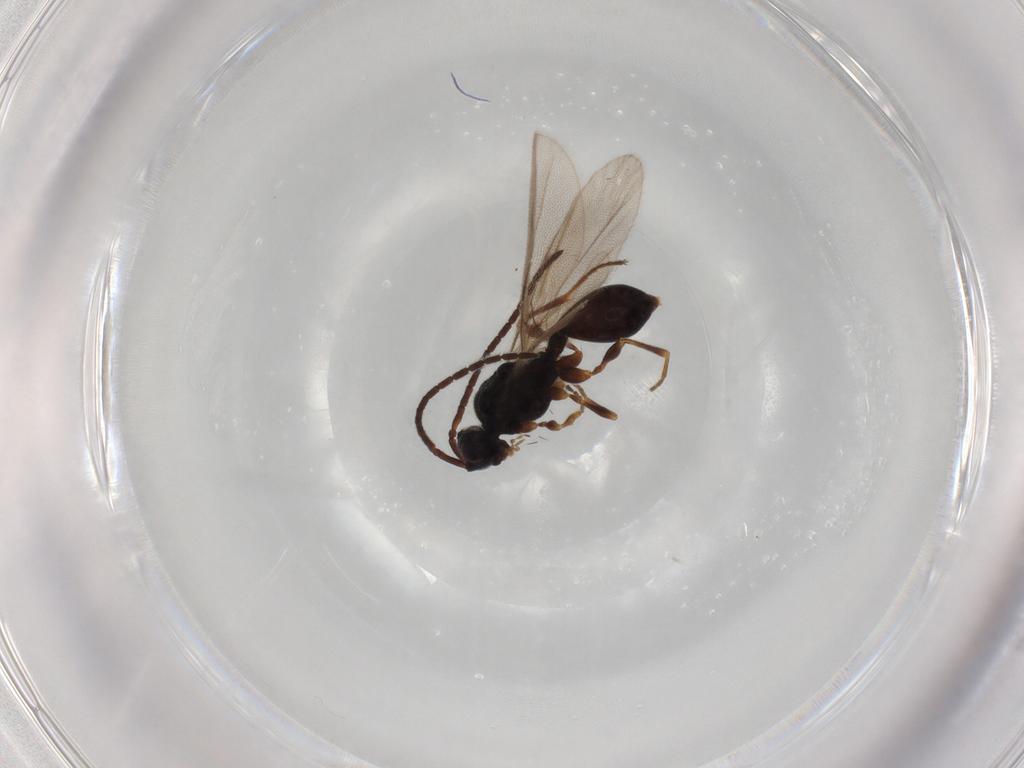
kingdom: Animalia
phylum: Arthropoda
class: Insecta
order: Hymenoptera
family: Diapriidae
